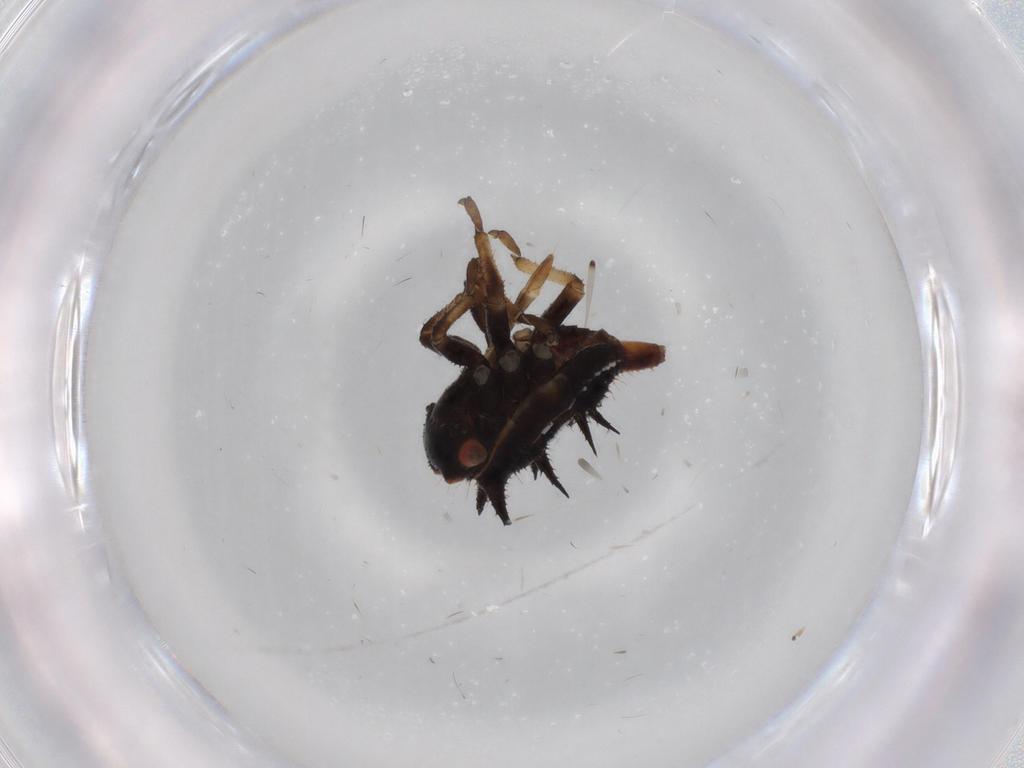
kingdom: Animalia
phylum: Arthropoda
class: Insecta
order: Hemiptera
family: Membracidae
